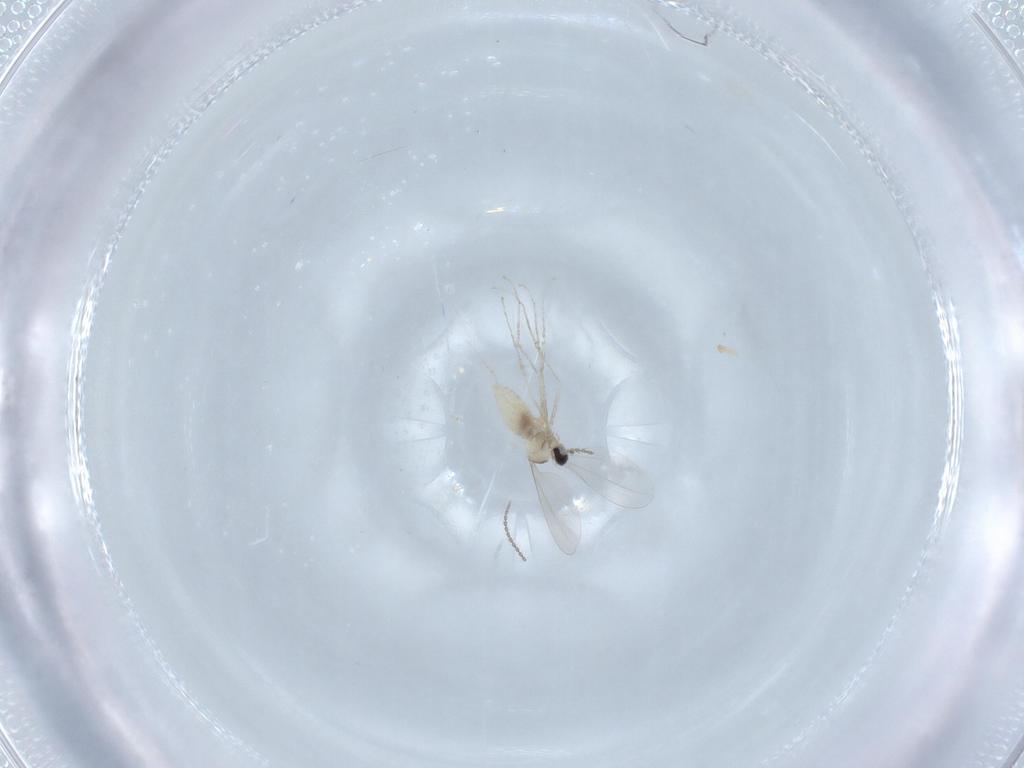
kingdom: Animalia
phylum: Arthropoda
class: Insecta
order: Diptera
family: Cecidomyiidae
